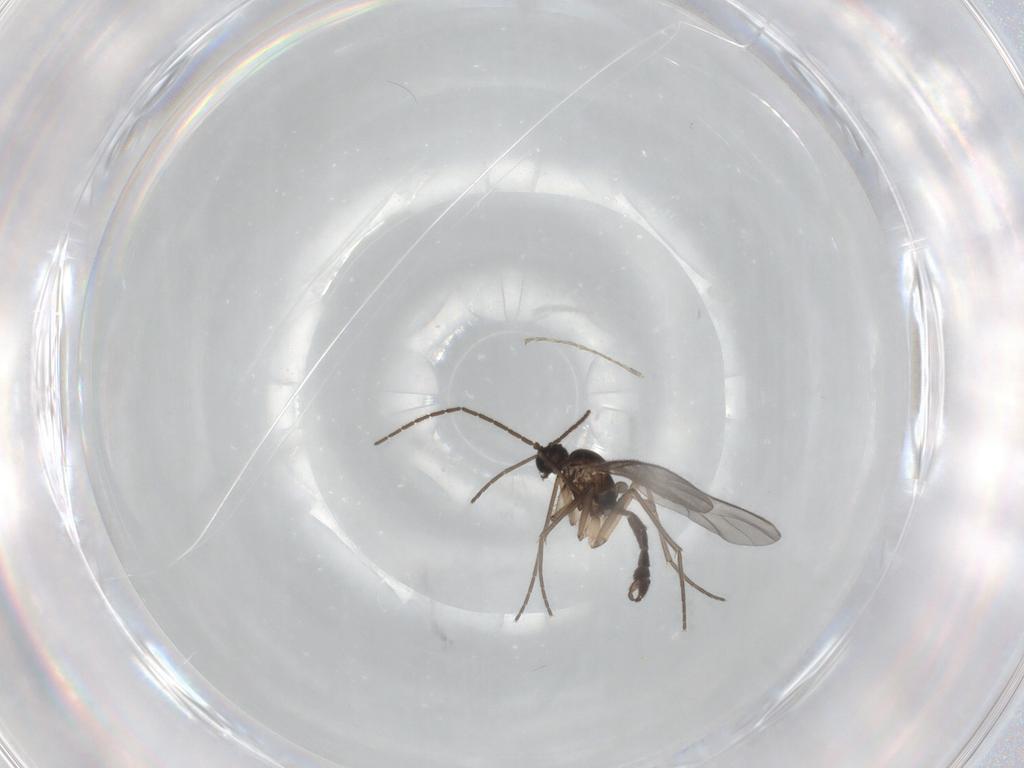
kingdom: Animalia
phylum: Arthropoda
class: Insecta
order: Diptera
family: Sciaridae
